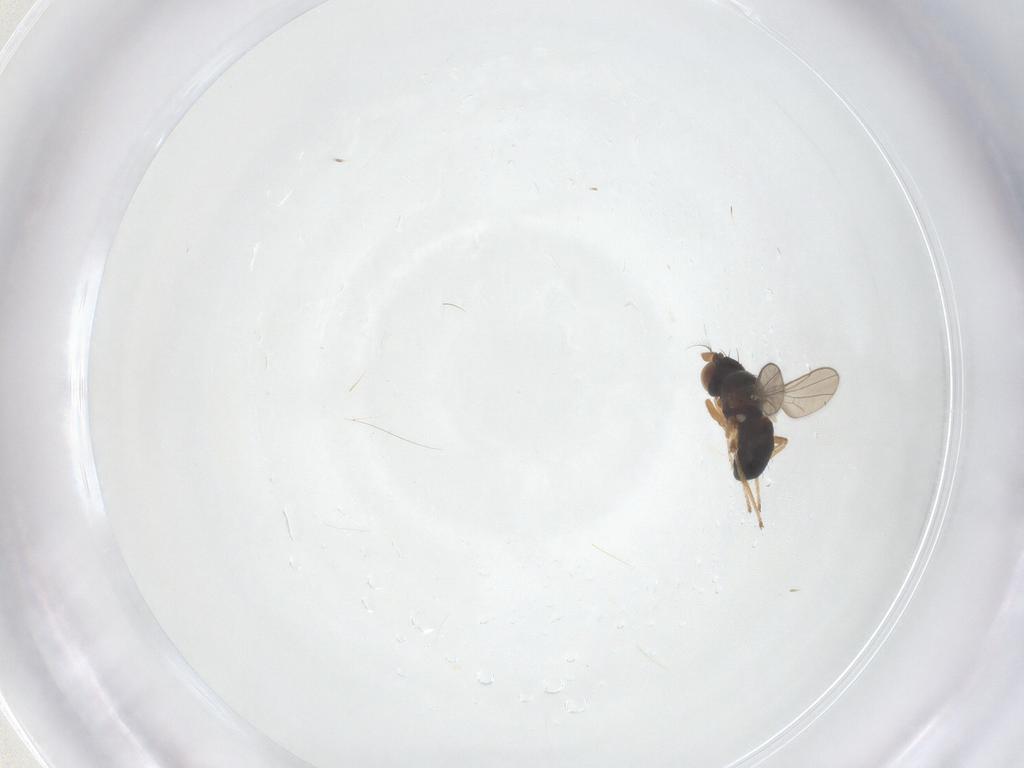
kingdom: Animalia
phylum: Arthropoda
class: Insecta
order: Diptera
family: Ephydridae
